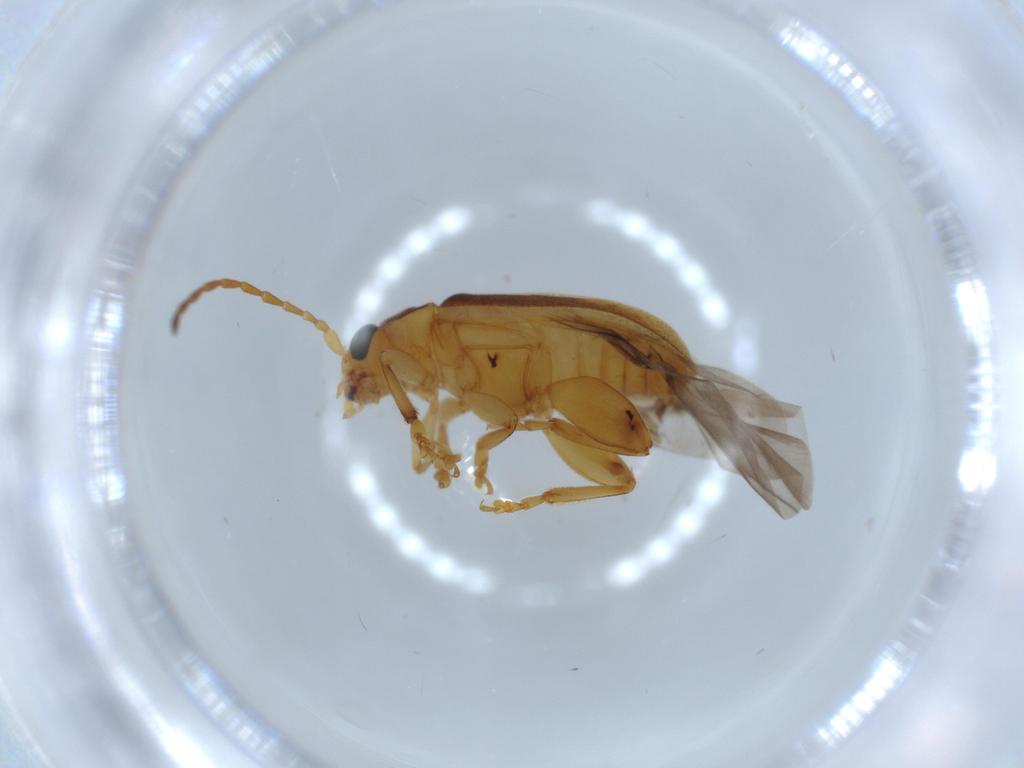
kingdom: Animalia
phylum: Arthropoda
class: Insecta
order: Coleoptera
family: Chrysomelidae
